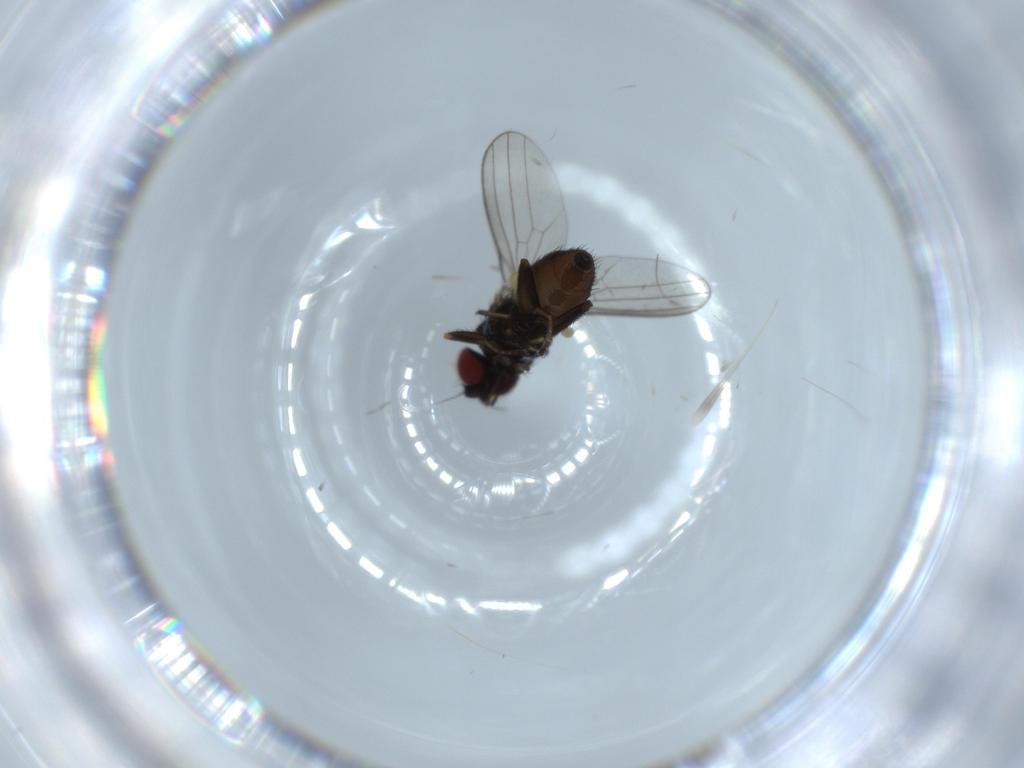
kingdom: Animalia
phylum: Arthropoda
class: Insecta
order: Diptera
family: Milichiidae
